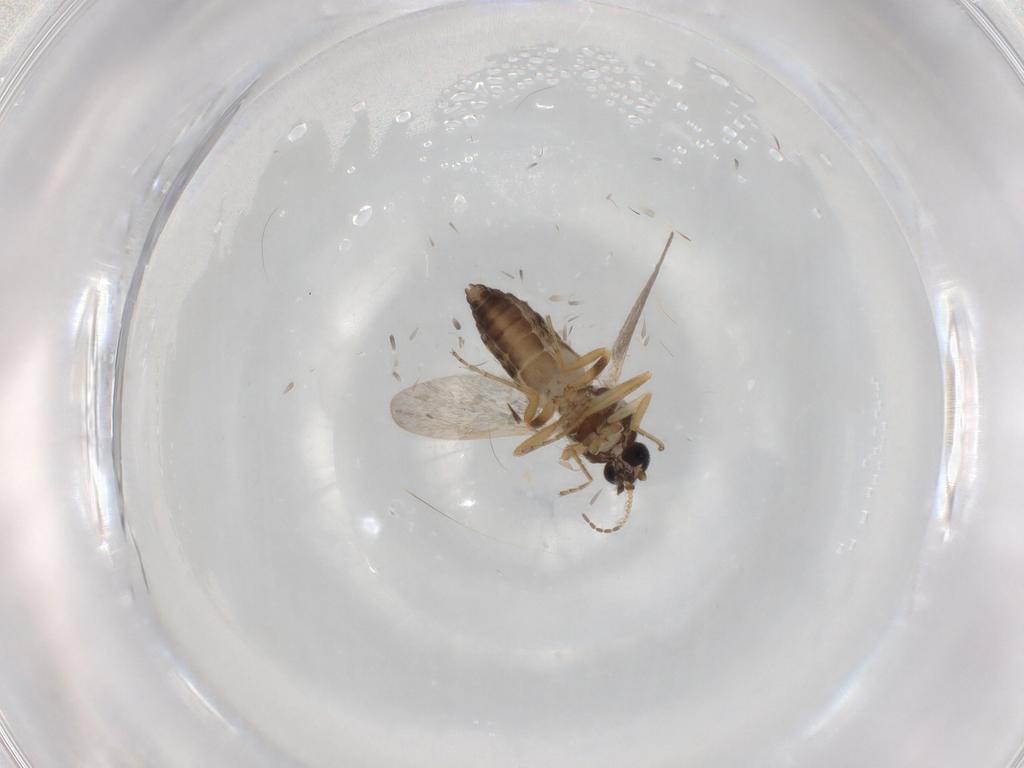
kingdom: Animalia
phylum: Arthropoda
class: Insecta
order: Diptera
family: Ceratopogonidae
